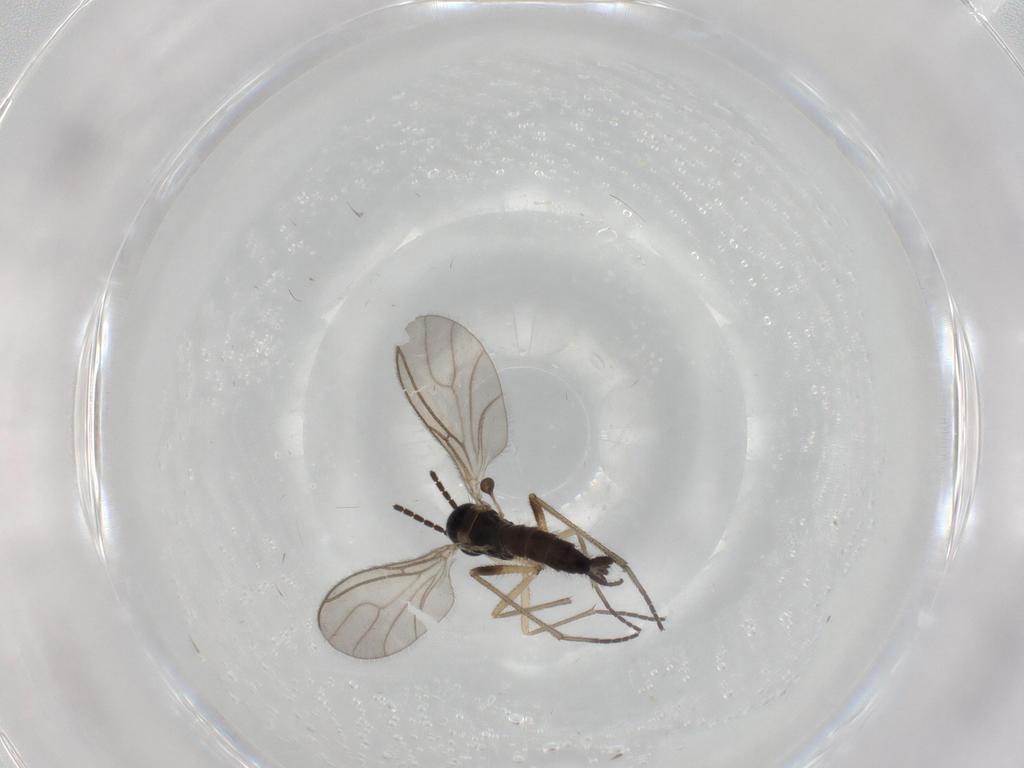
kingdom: Animalia
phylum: Arthropoda
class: Insecta
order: Diptera
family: Sciaridae
